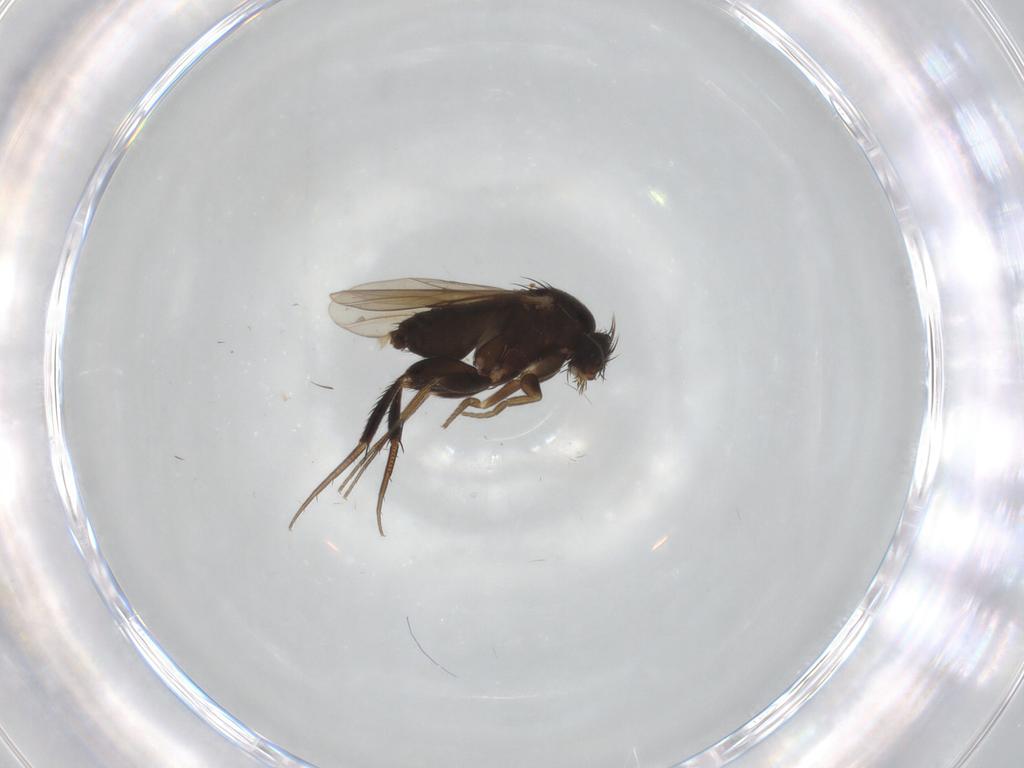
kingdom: Animalia
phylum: Arthropoda
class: Insecta
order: Diptera
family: Phoridae
